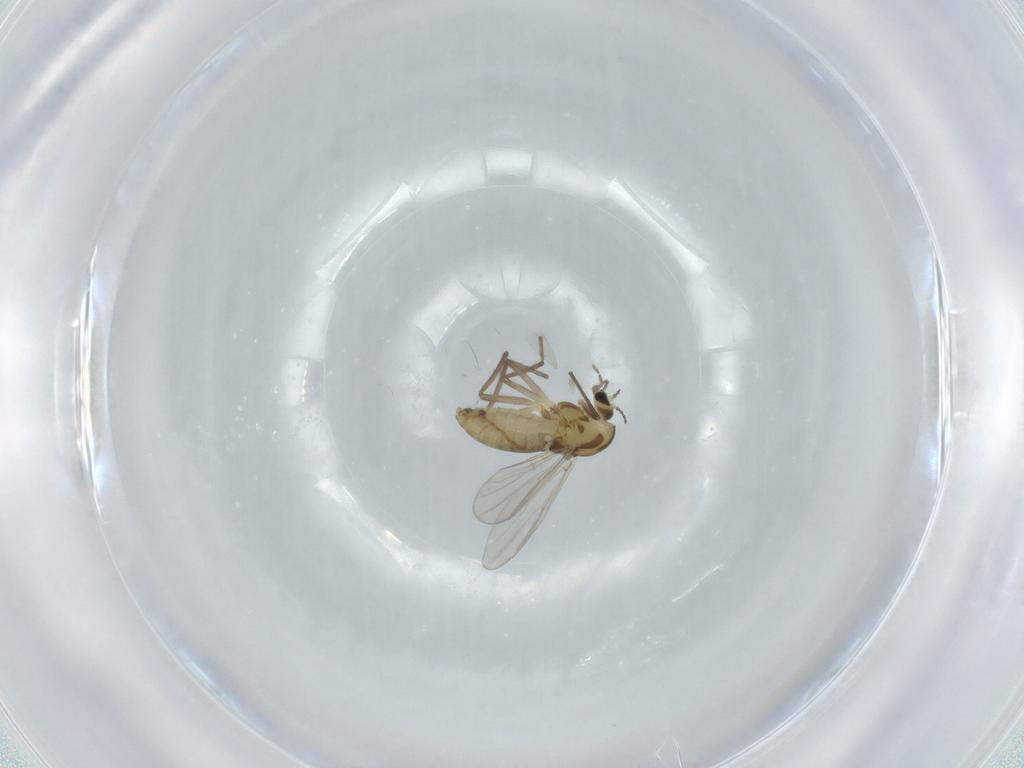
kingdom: Animalia
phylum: Arthropoda
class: Insecta
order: Diptera
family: Chironomidae
